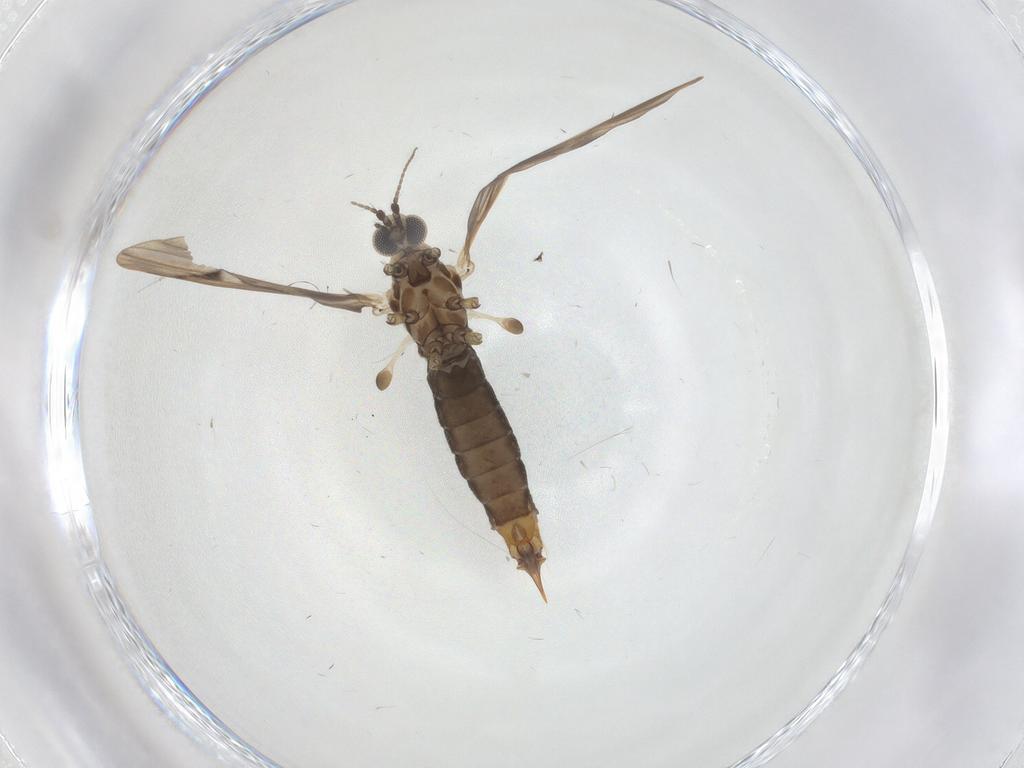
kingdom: Animalia
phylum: Arthropoda
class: Insecta
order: Diptera
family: Limoniidae
